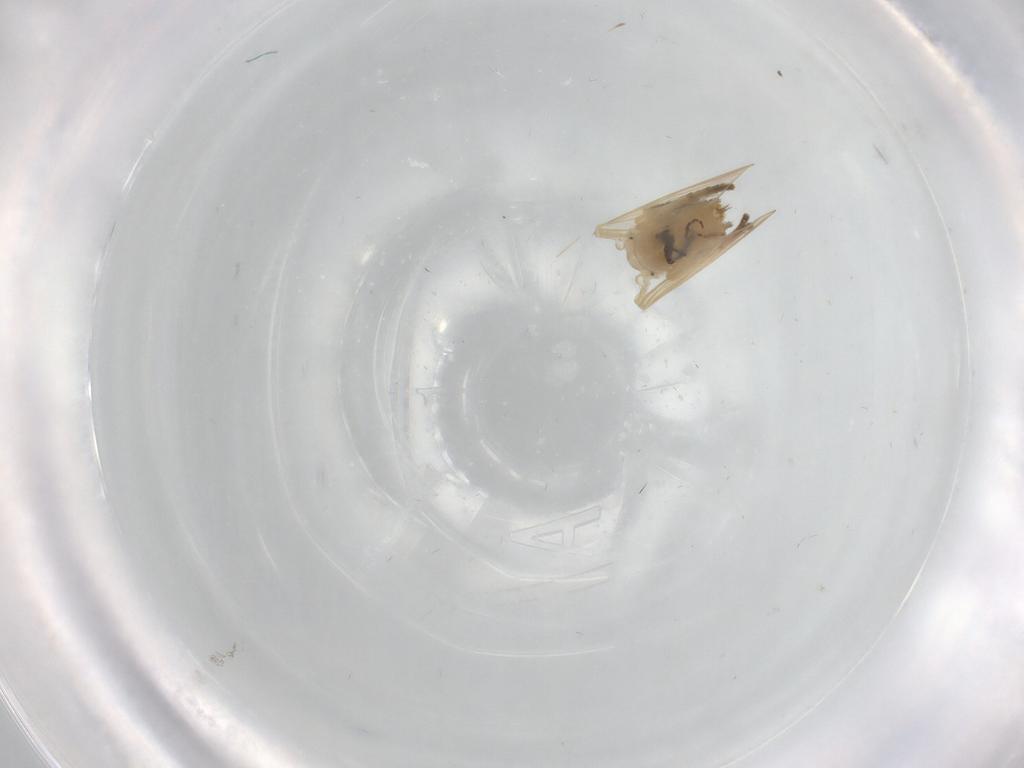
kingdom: Animalia
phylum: Arthropoda
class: Insecta
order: Diptera
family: Psychodidae
